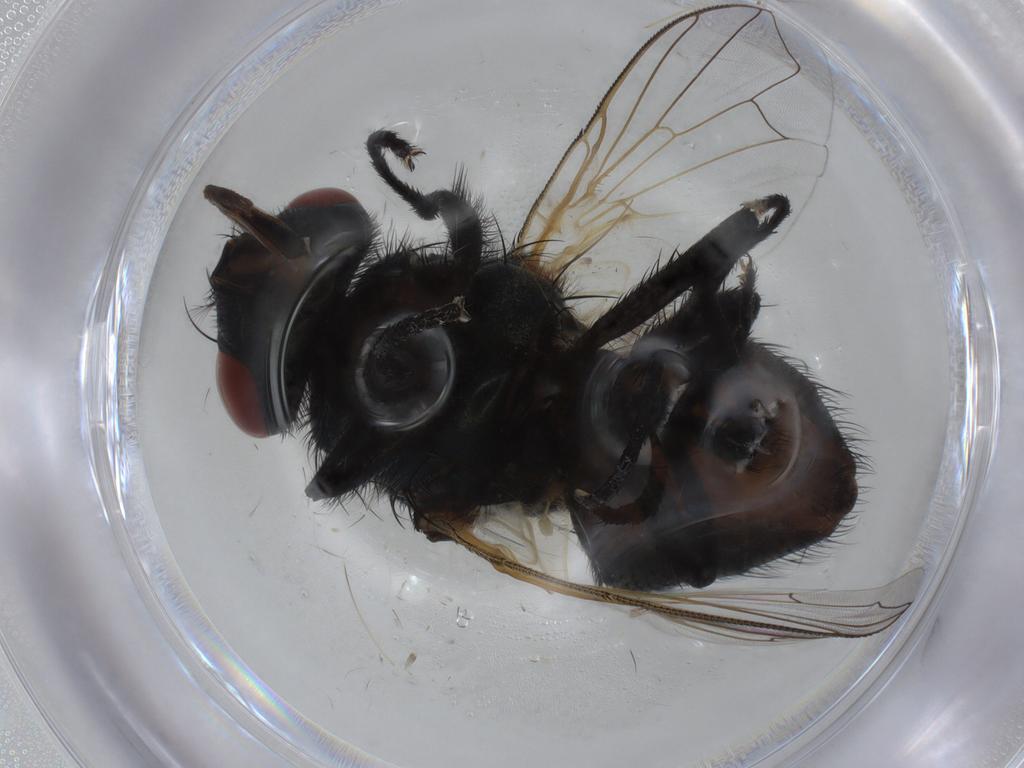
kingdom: Animalia
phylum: Arthropoda
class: Insecta
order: Diptera
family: Muscidae
